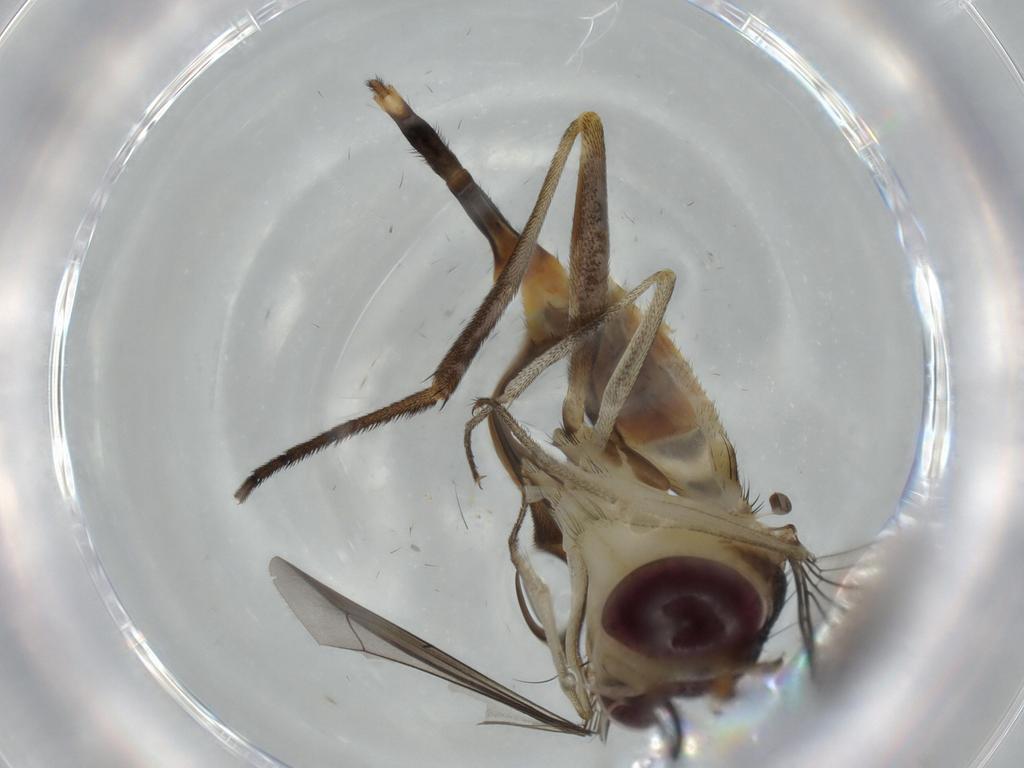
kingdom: Animalia
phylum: Arthropoda
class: Insecta
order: Diptera
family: Conopidae
